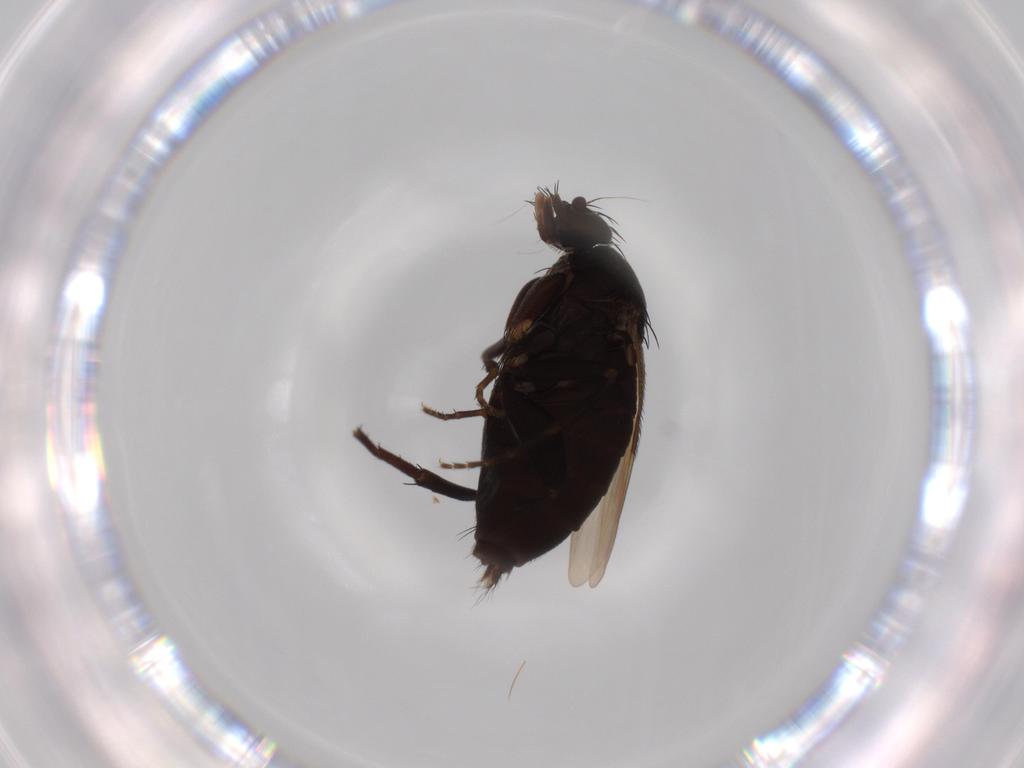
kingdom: Animalia
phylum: Arthropoda
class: Insecta
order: Diptera
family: Phoridae
